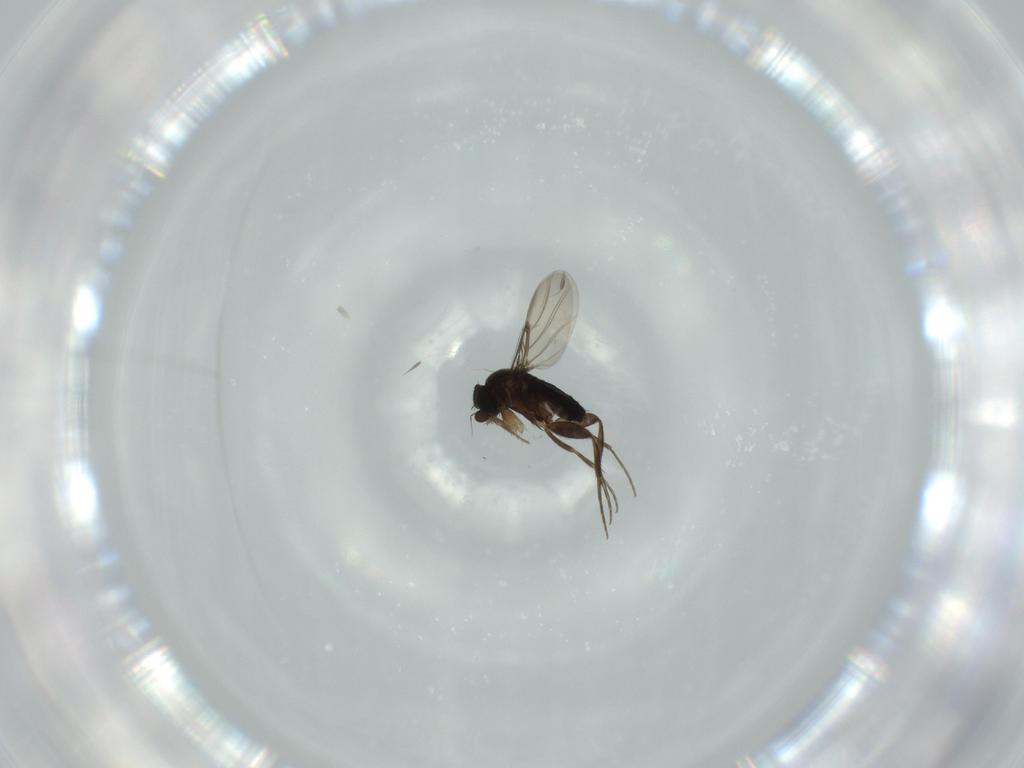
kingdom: Animalia
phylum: Arthropoda
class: Insecta
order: Diptera
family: Phoridae
